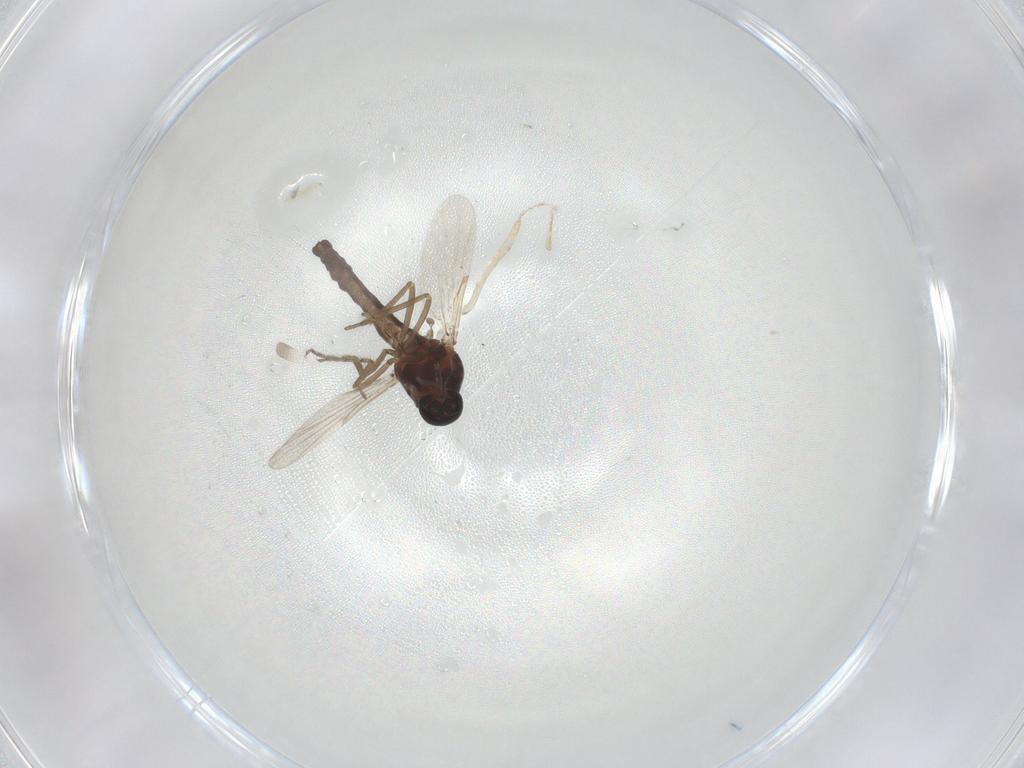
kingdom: Animalia
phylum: Arthropoda
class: Insecta
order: Diptera
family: Ceratopogonidae
